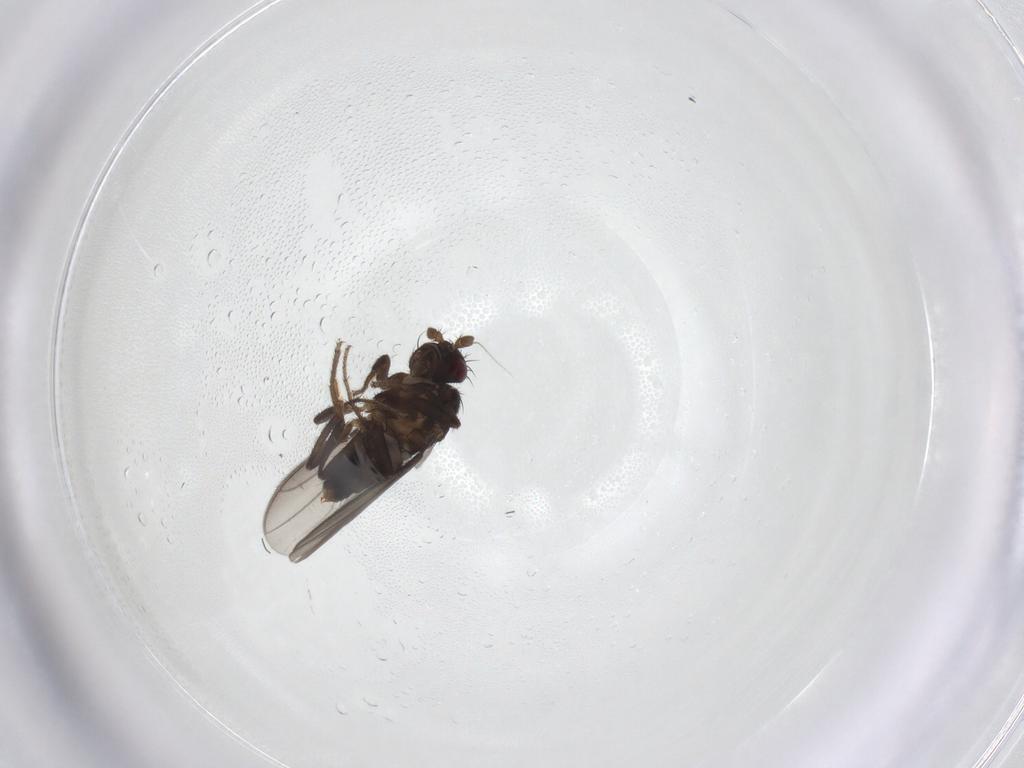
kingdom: Animalia
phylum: Arthropoda
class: Insecta
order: Diptera
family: Sphaeroceridae
